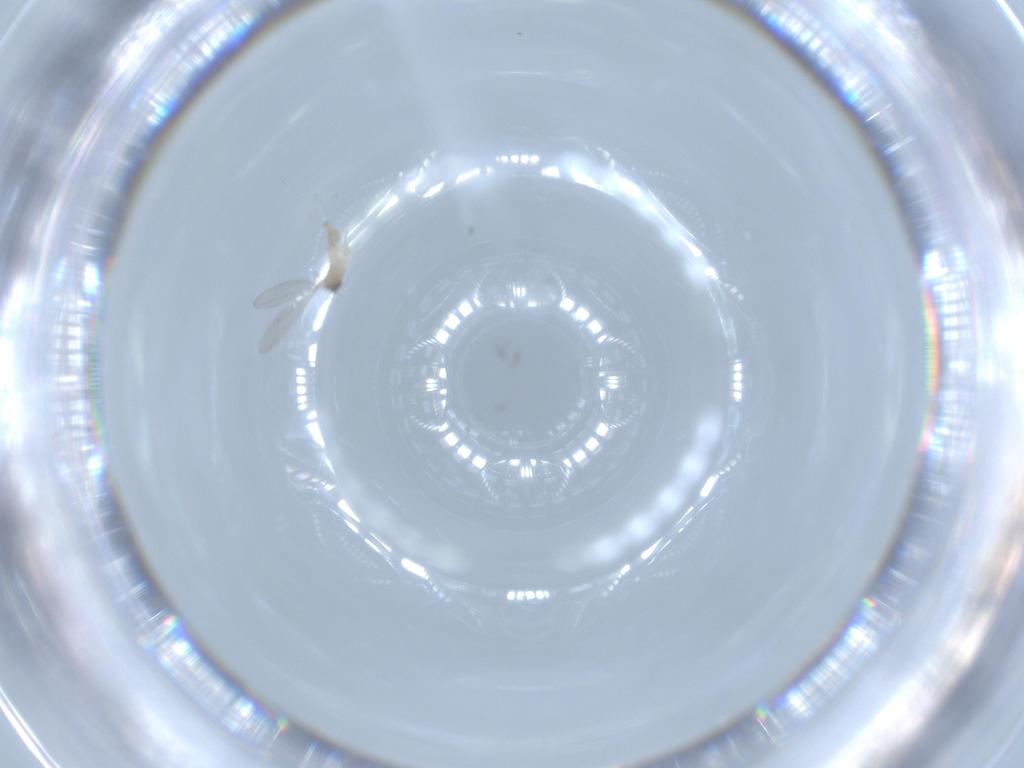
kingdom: Animalia
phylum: Arthropoda
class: Insecta
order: Diptera
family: Cecidomyiidae
